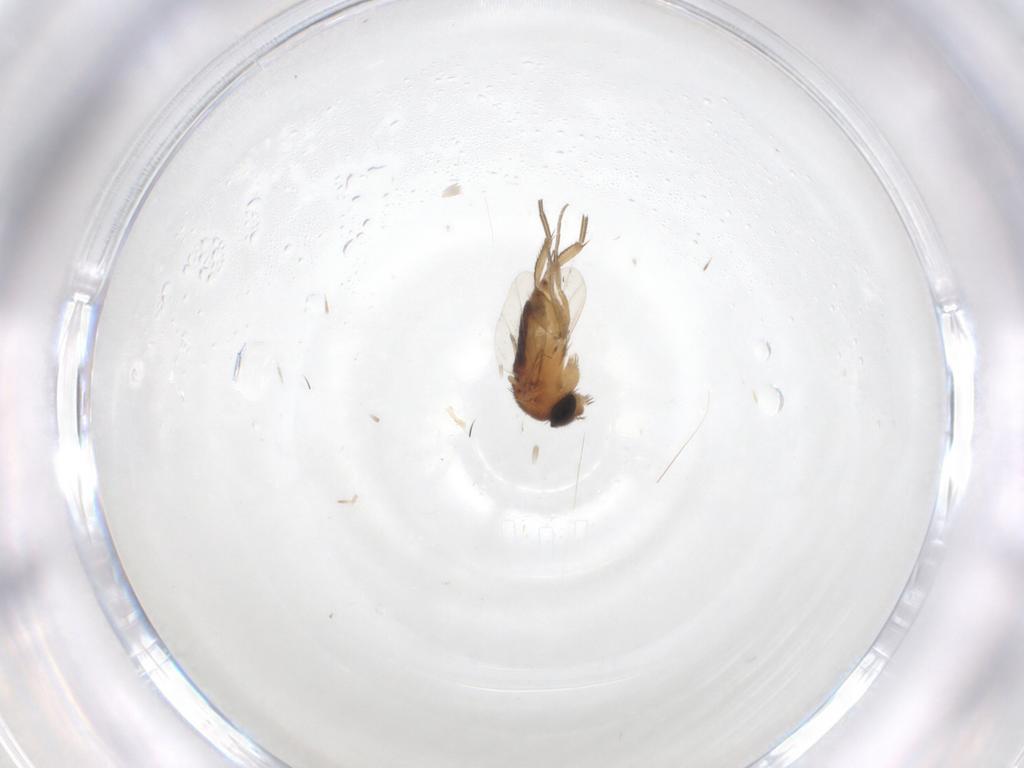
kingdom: Animalia
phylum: Arthropoda
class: Insecta
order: Diptera
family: Phoridae
